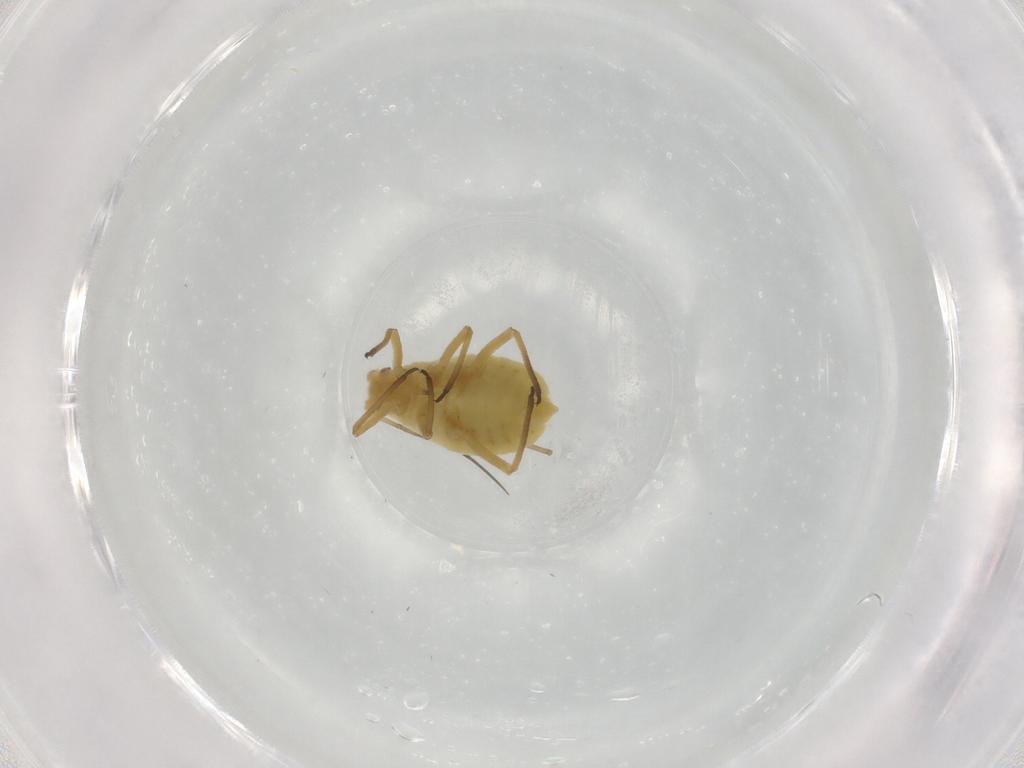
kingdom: Animalia
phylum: Arthropoda
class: Insecta
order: Hemiptera
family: Aphididae
